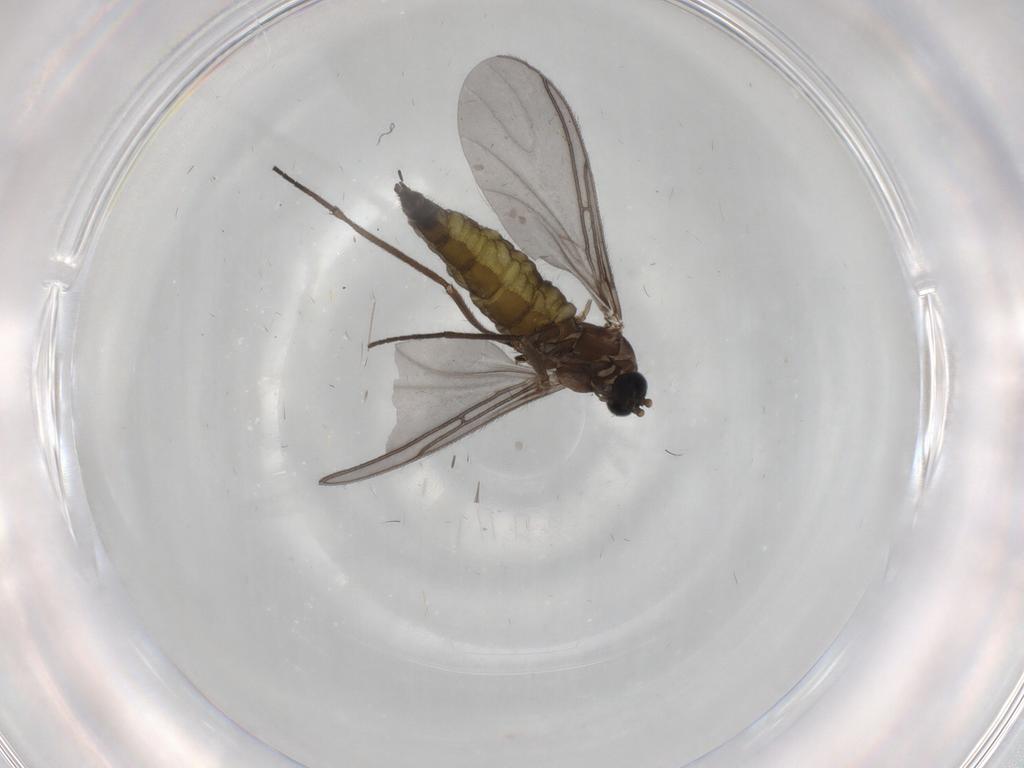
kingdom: Animalia
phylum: Arthropoda
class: Insecta
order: Diptera
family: Sciaridae
